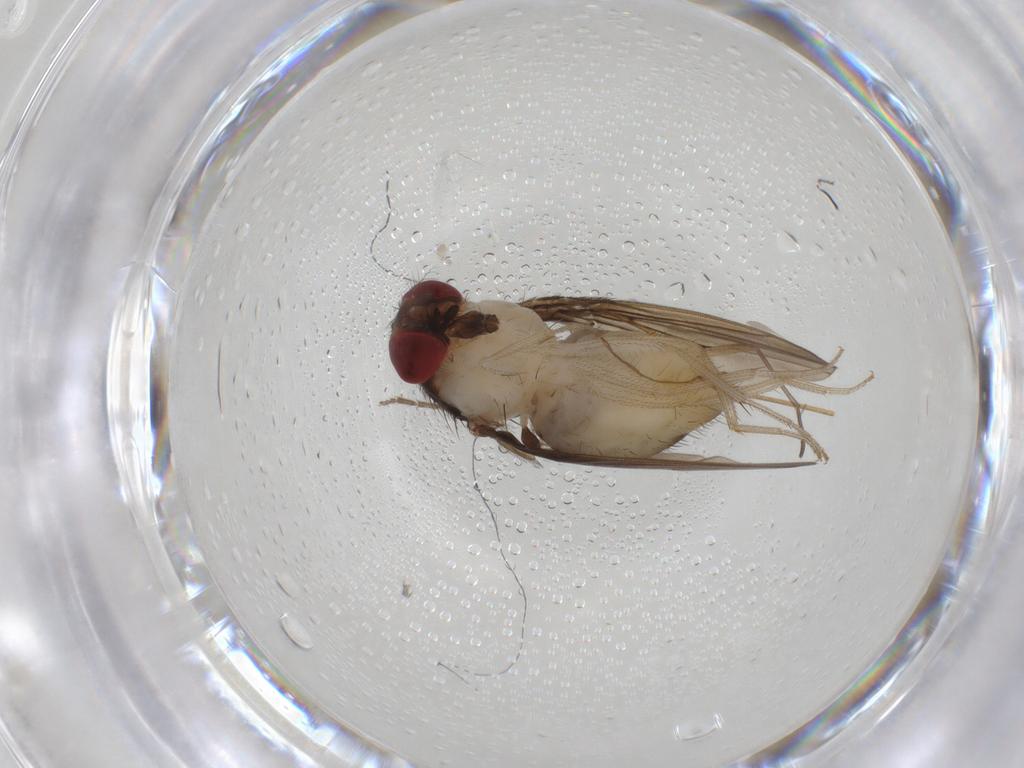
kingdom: Animalia
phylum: Arthropoda
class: Insecta
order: Diptera
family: Drosophilidae
